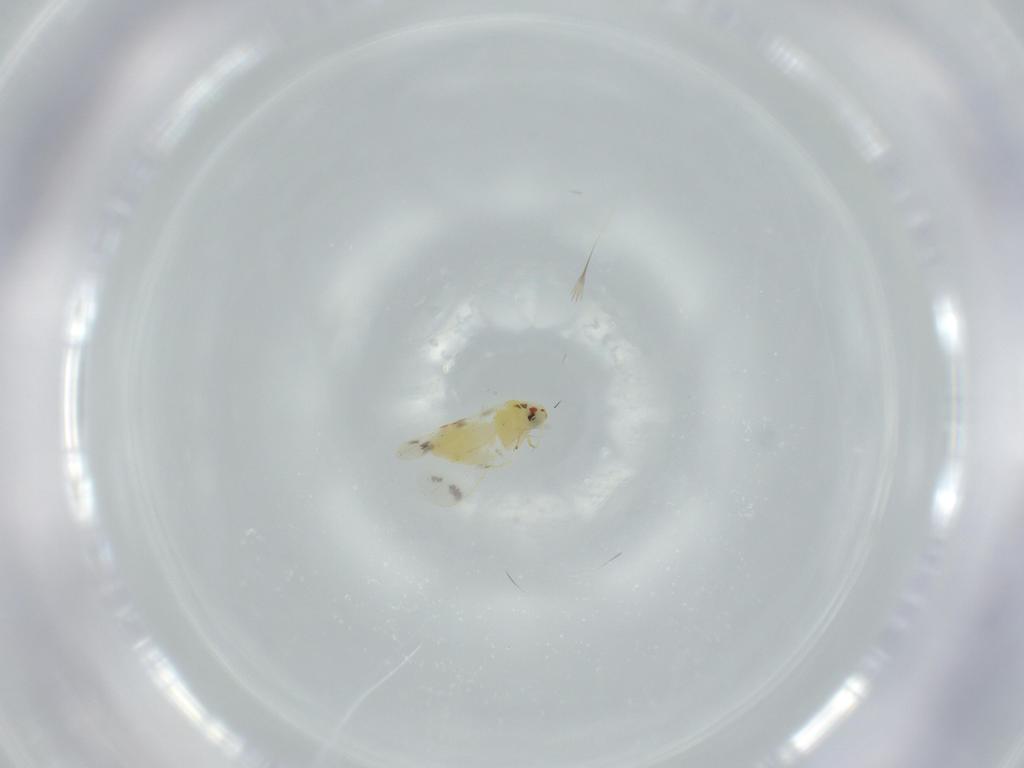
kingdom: Animalia
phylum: Arthropoda
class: Insecta
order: Hemiptera
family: Aleyrodidae
